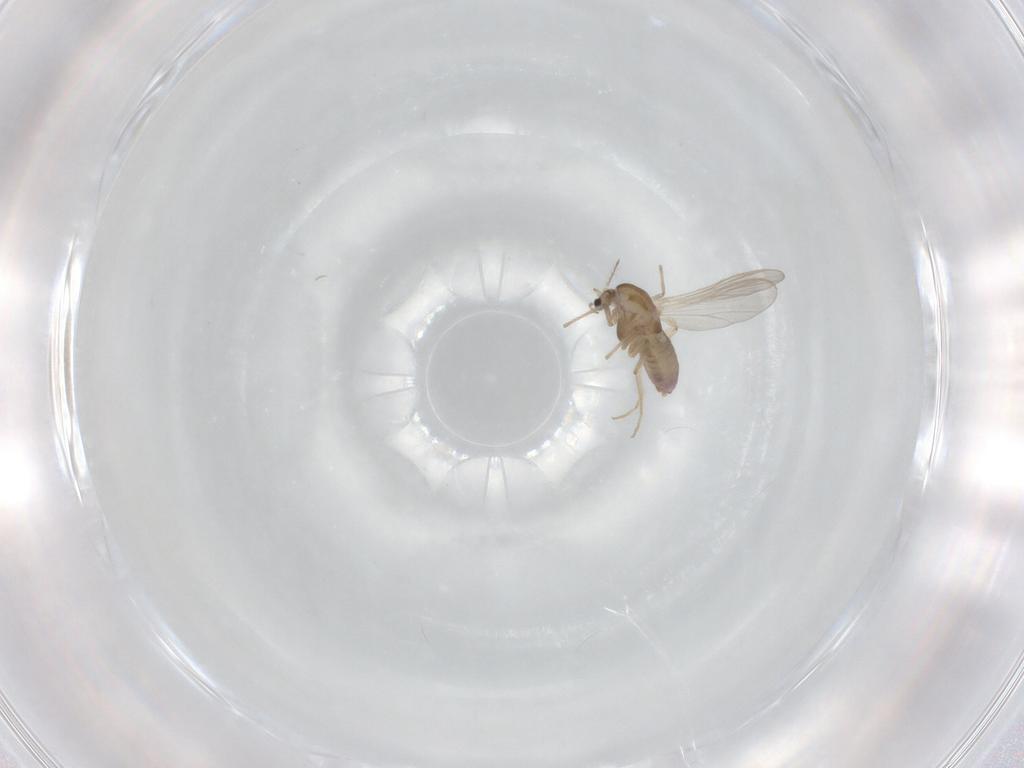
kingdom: Animalia
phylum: Arthropoda
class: Insecta
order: Diptera
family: Chironomidae
